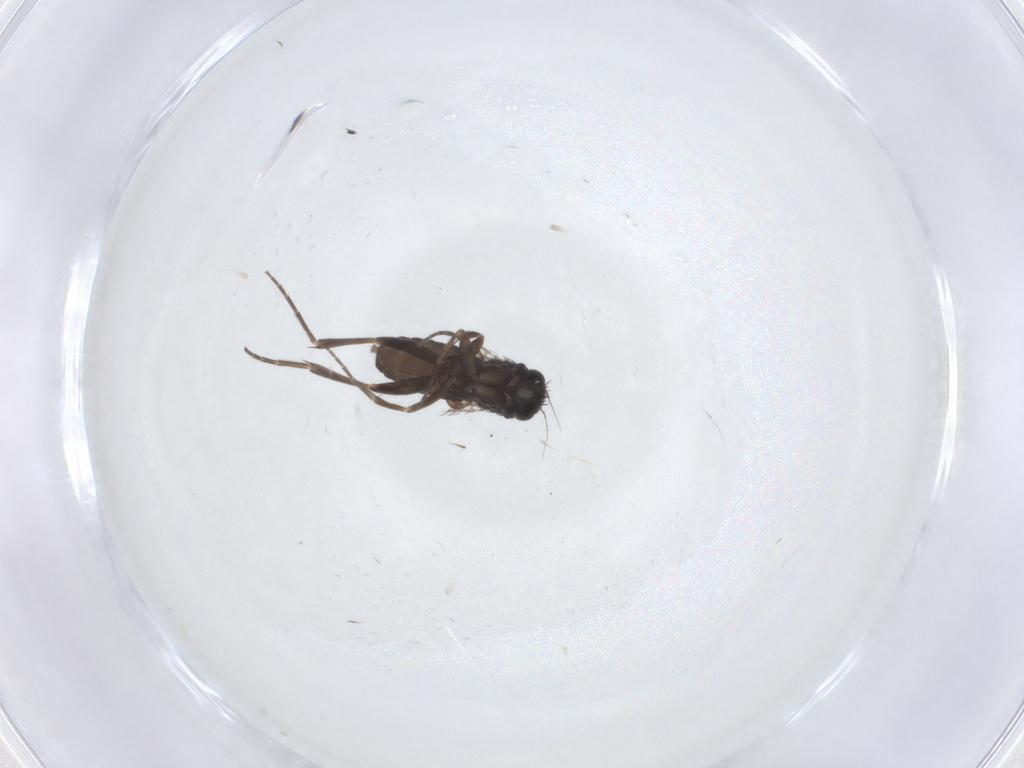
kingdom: Animalia
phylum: Arthropoda
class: Insecta
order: Diptera
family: Phoridae
